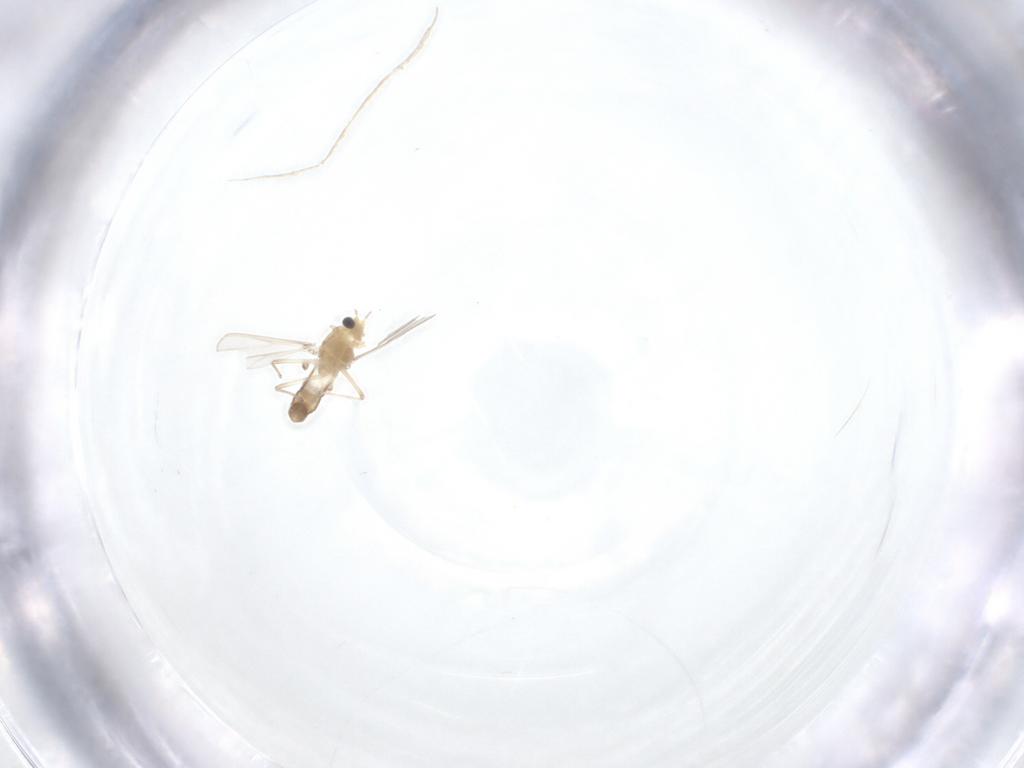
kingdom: Animalia
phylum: Arthropoda
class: Insecta
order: Diptera
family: Chironomidae
